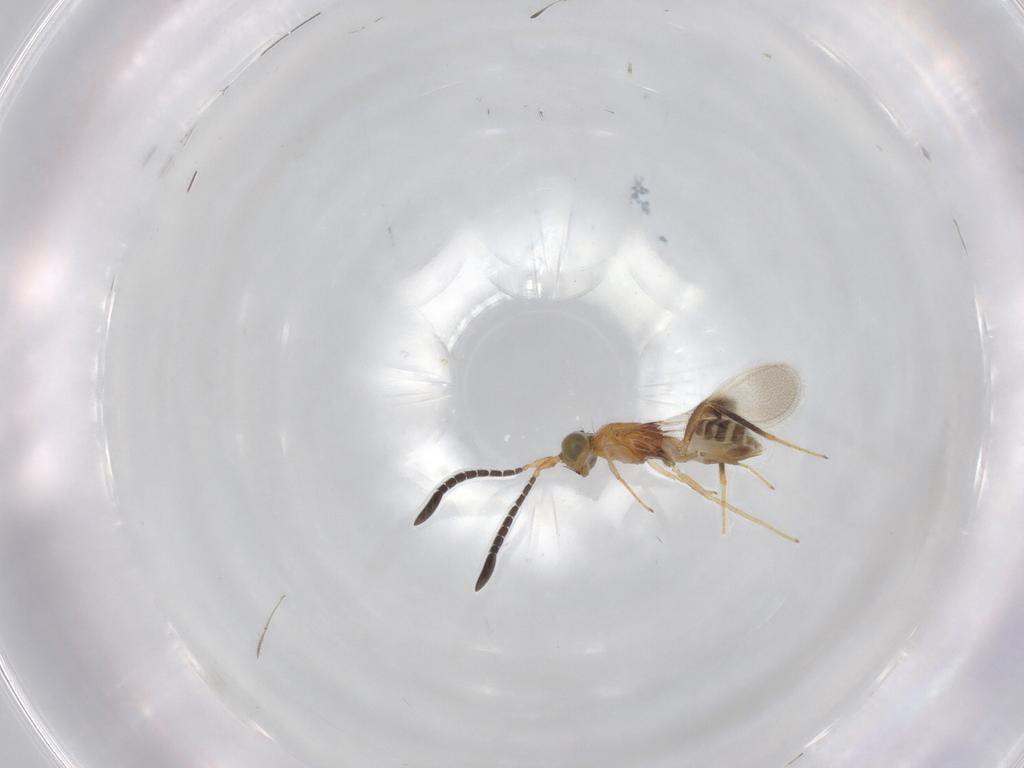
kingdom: Animalia
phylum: Arthropoda
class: Insecta
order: Hymenoptera
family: Mymaridae
